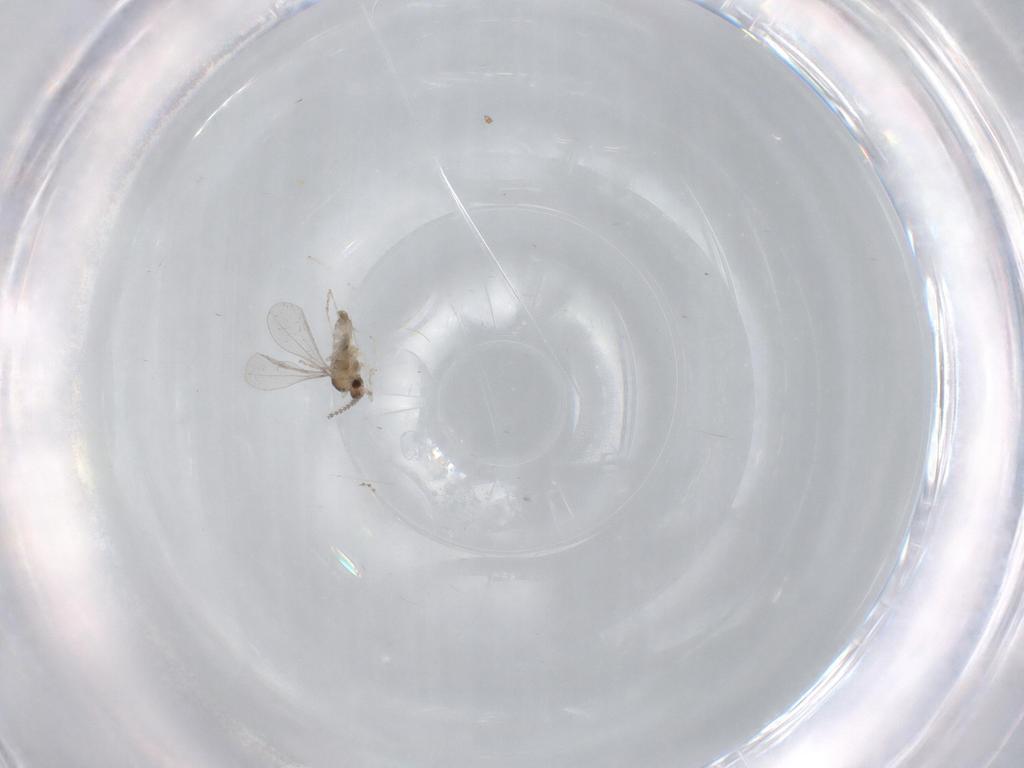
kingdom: Animalia
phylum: Arthropoda
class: Insecta
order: Diptera
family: Cecidomyiidae
